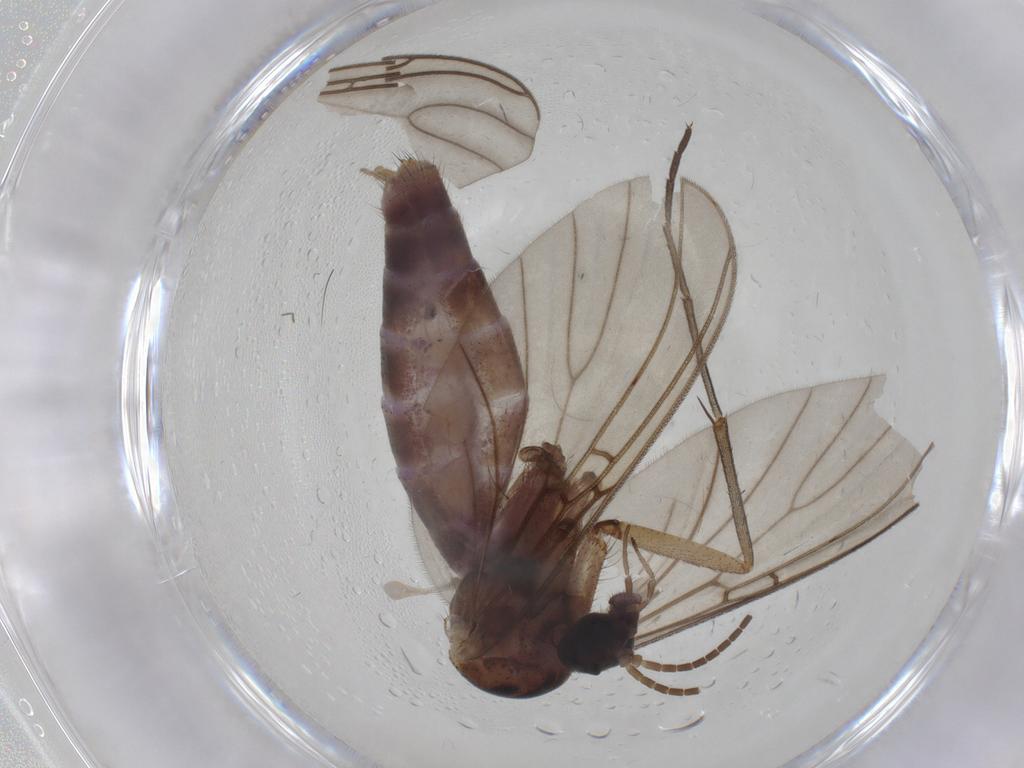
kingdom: Animalia
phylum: Arthropoda
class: Insecta
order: Diptera
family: Mycetophilidae
